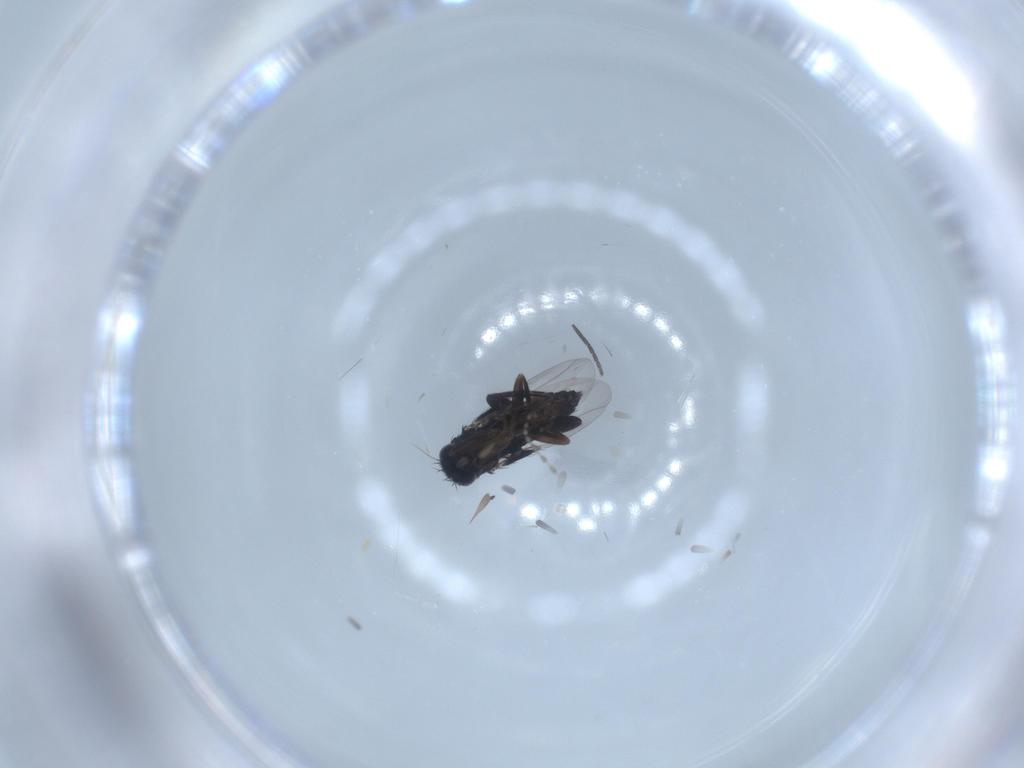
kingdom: Animalia
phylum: Arthropoda
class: Insecta
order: Diptera
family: Phoridae
